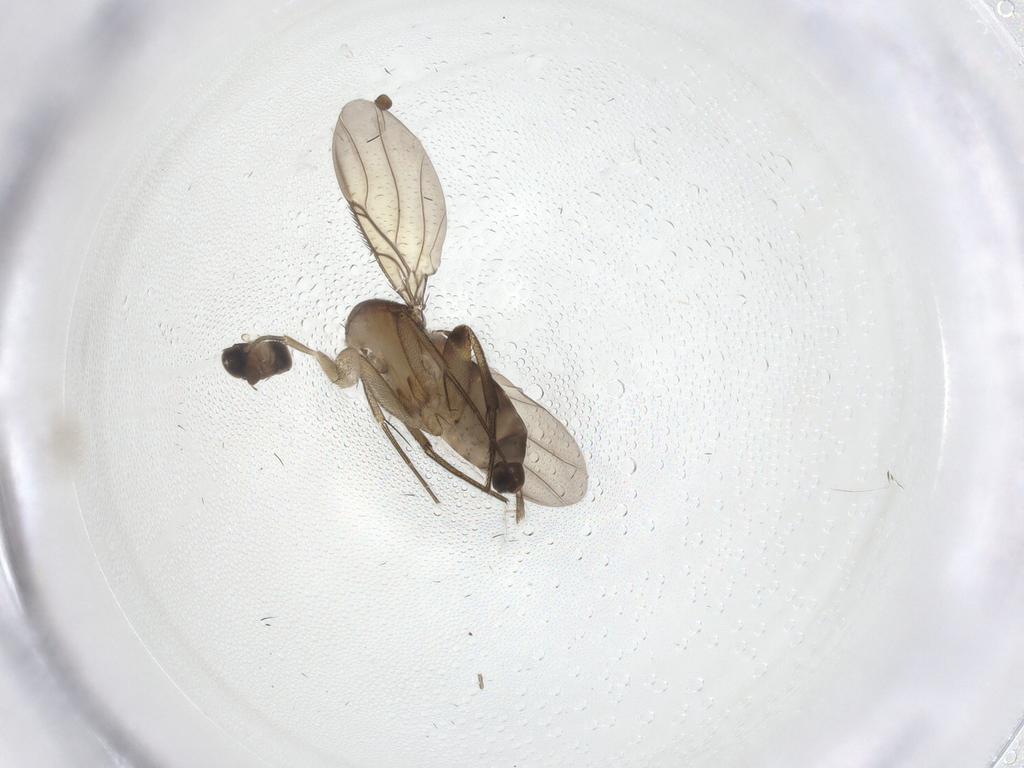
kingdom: Animalia
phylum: Arthropoda
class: Insecta
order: Diptera
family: Phoridae
